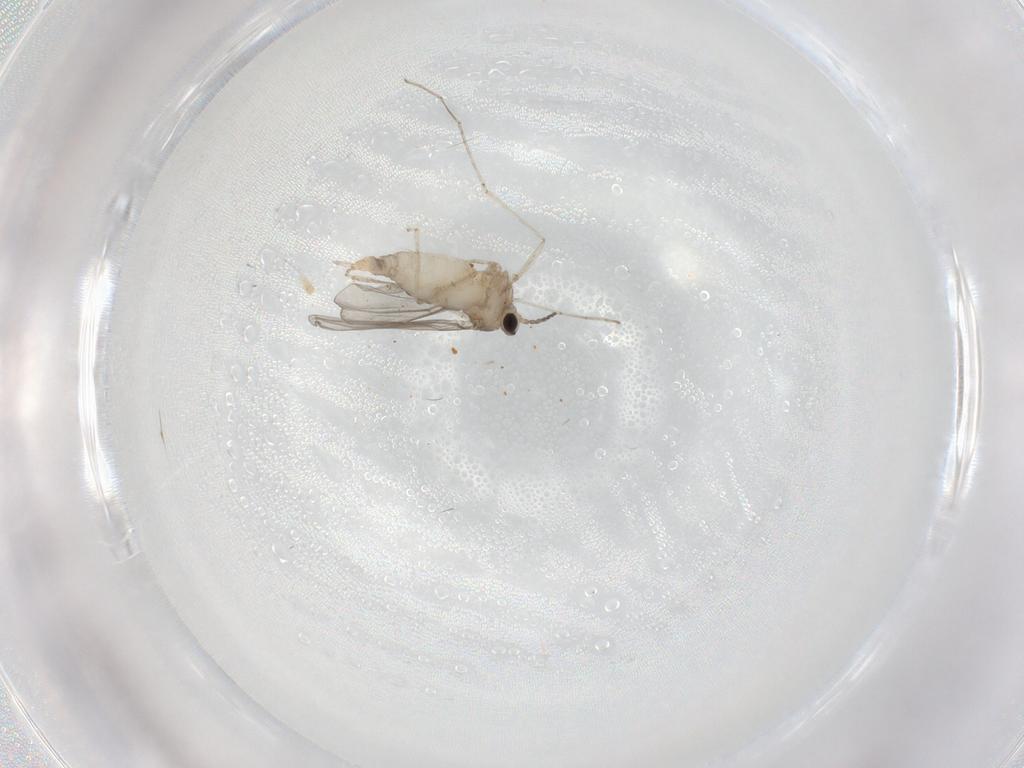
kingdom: Animalia
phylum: Arthropoda
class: Insecta
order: Diptera
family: Cecidomyiidae
